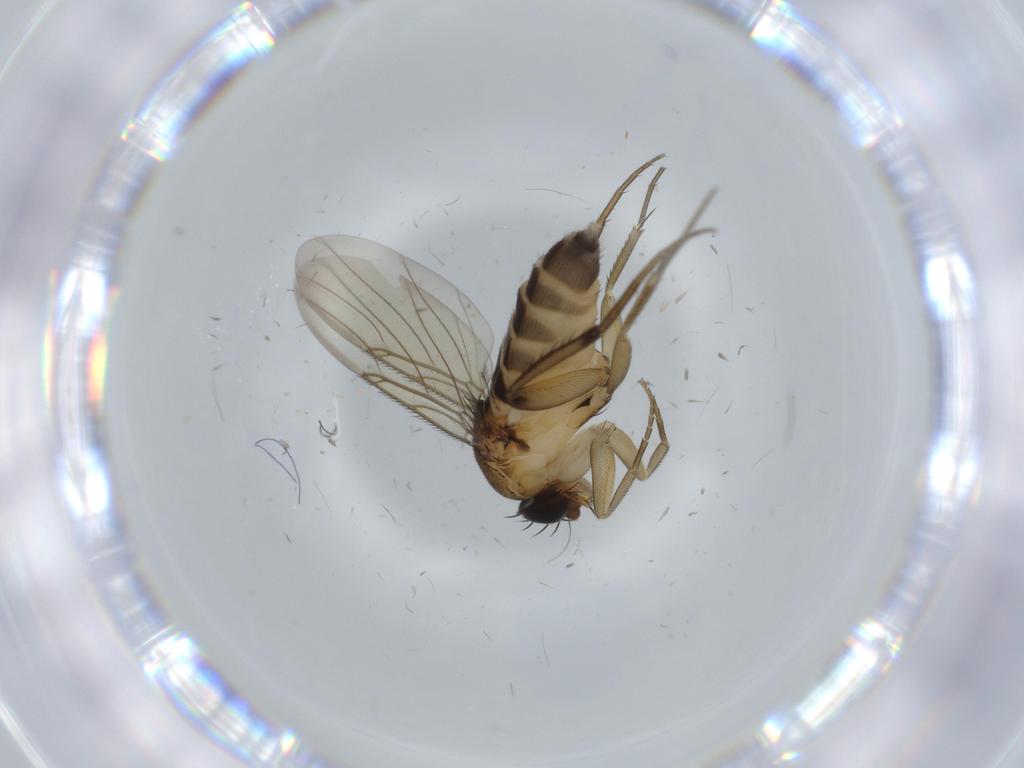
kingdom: Animalia
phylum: Arthropoda
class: Insecta
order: Diptera
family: Phoridae
